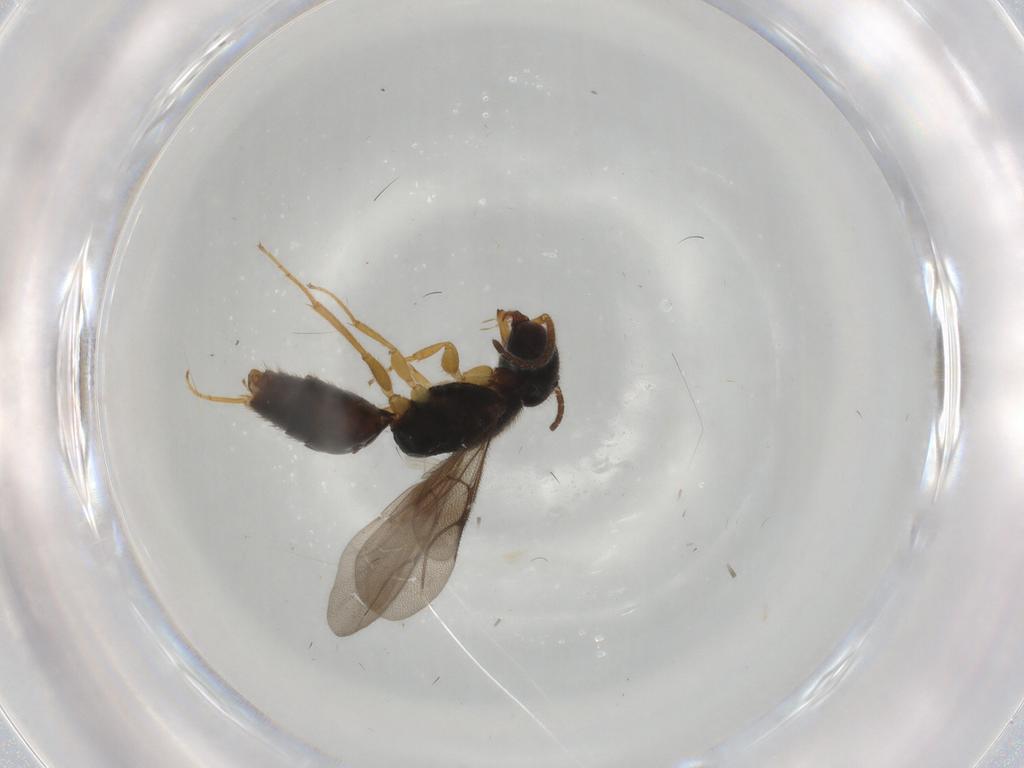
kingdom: Animalia
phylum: Arthropoda
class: Insecta
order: Hymenoptera
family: Bethylidae
